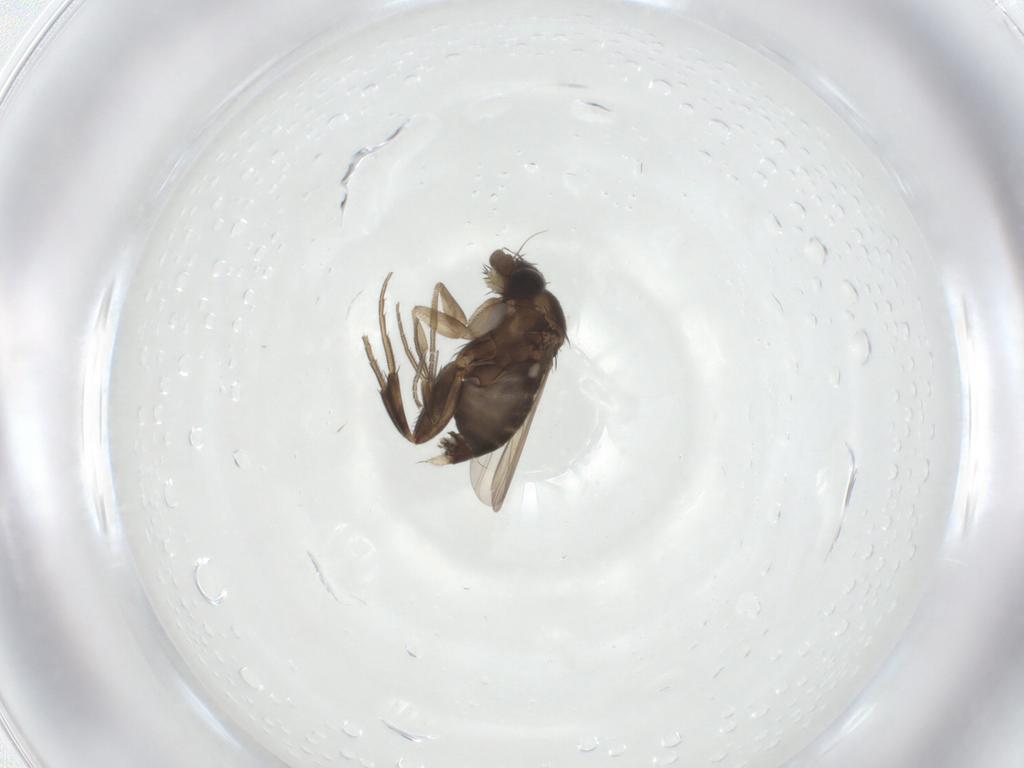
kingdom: Animalia
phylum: Arthropoda
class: Insecta
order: Diptera
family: Phoridae
